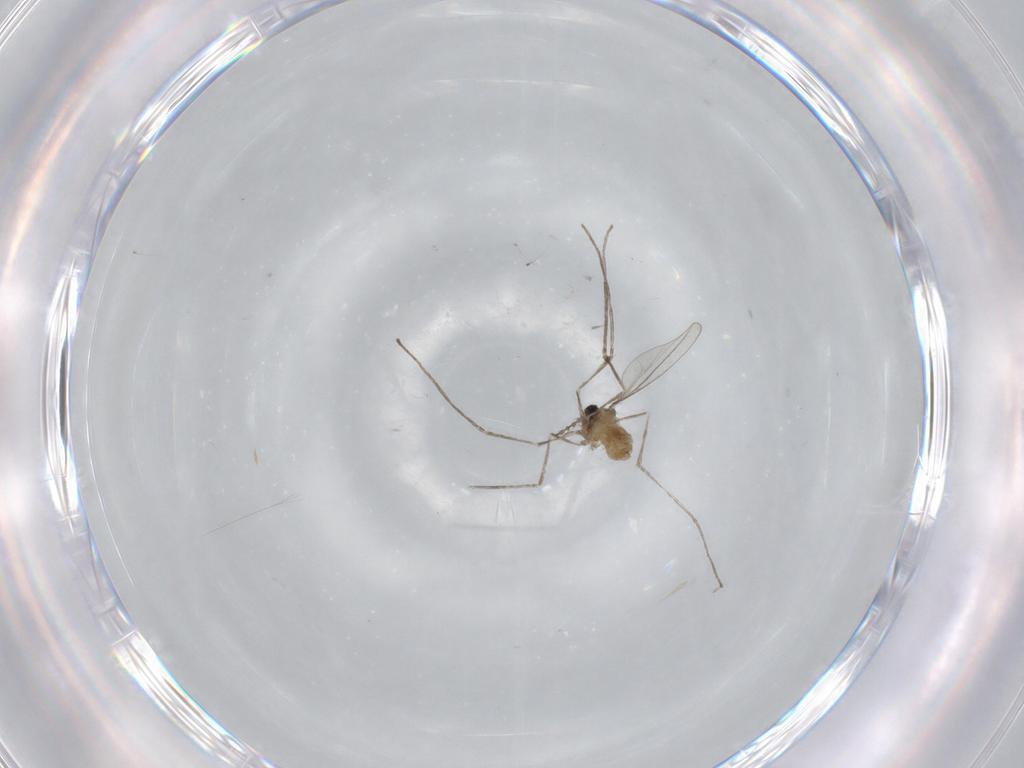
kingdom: Animalia
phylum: Arthropoda
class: Insecta
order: Diptera
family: Cecidomyiidae
